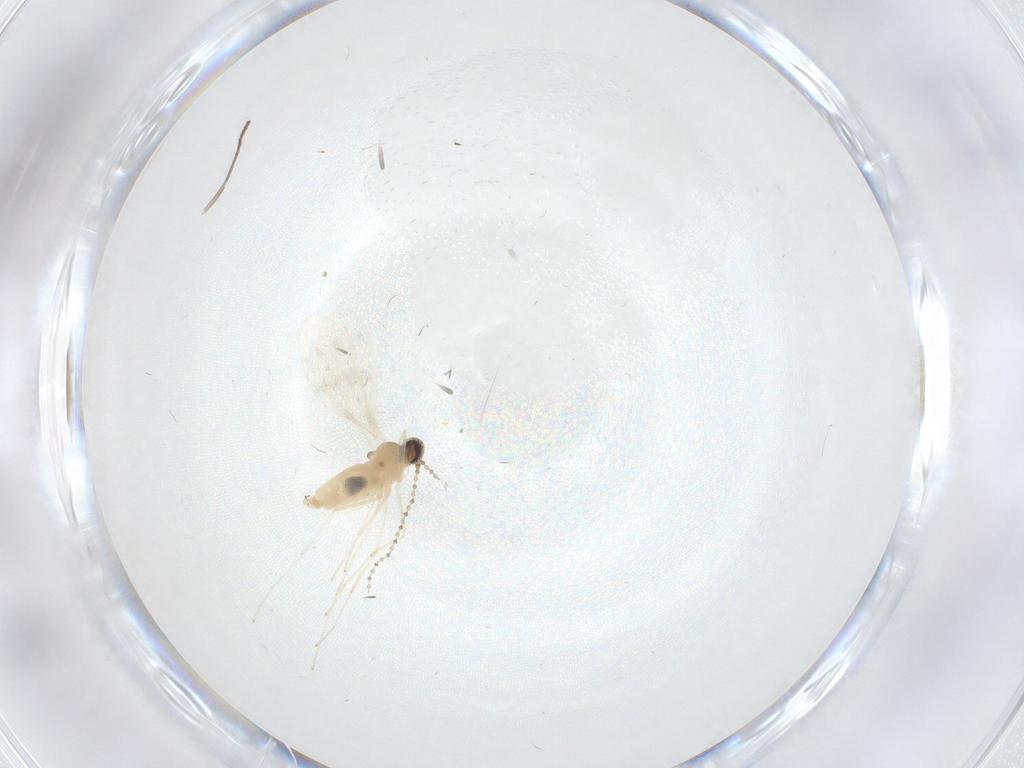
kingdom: Animalia
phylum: Arthropoda
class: Insecta
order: Diptera
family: Cecidomyiidae
